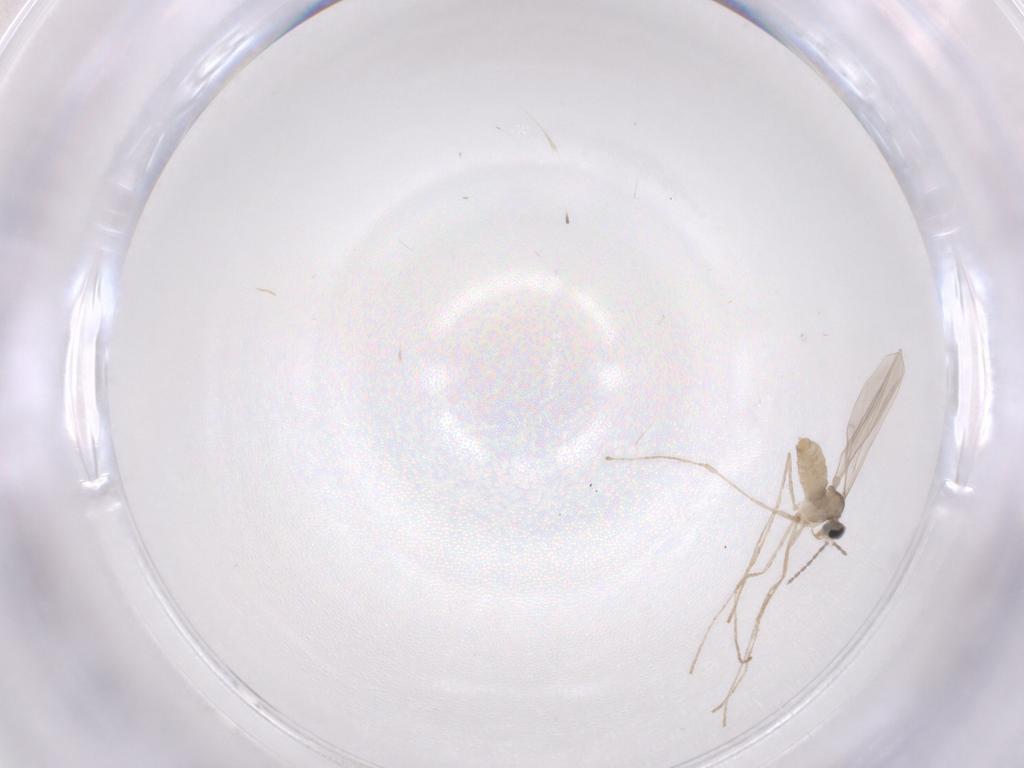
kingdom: Animalia
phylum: Arthropoda
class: Insecta
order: Diptera
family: Cecidomyiidae
